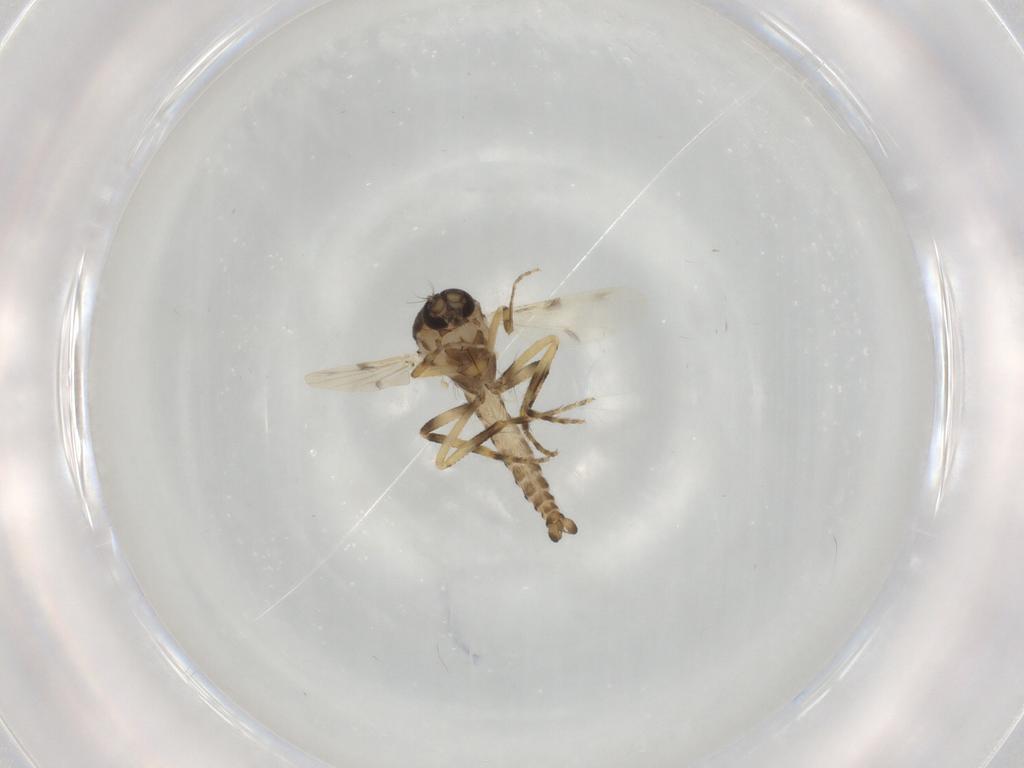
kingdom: Animalia
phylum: Arthropoda
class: Insecta
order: Diptera
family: Ceratopogonidae
